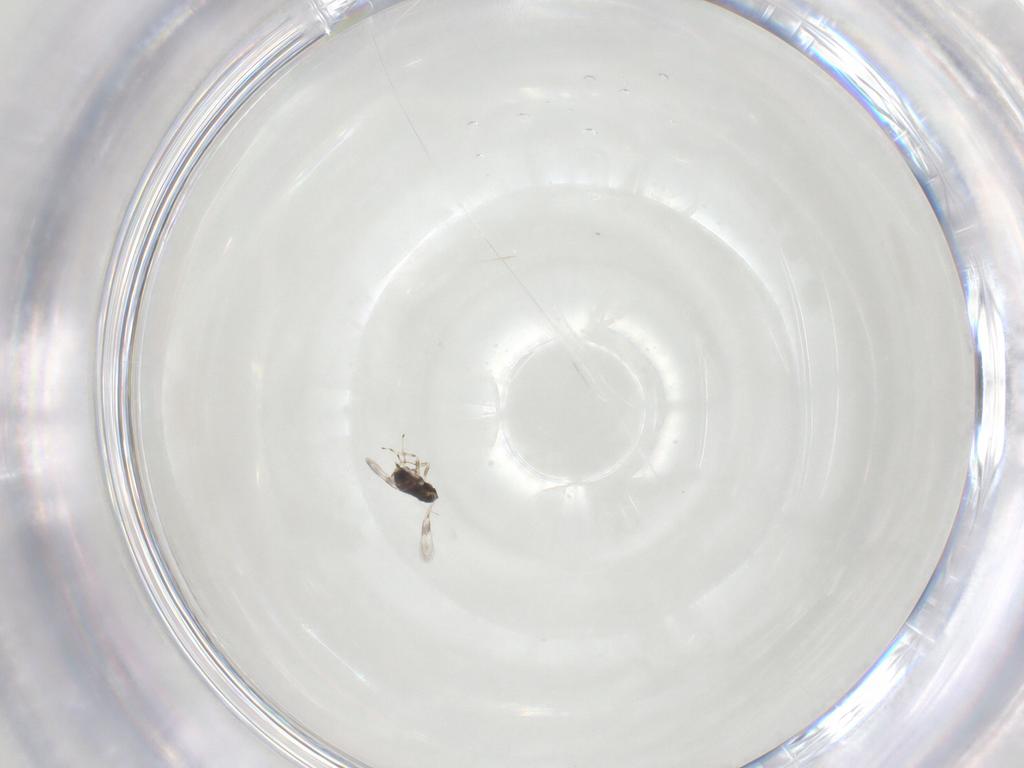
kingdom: Animalia
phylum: Arthropoda
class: Insecta
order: Hymenoptera
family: Azotidae
